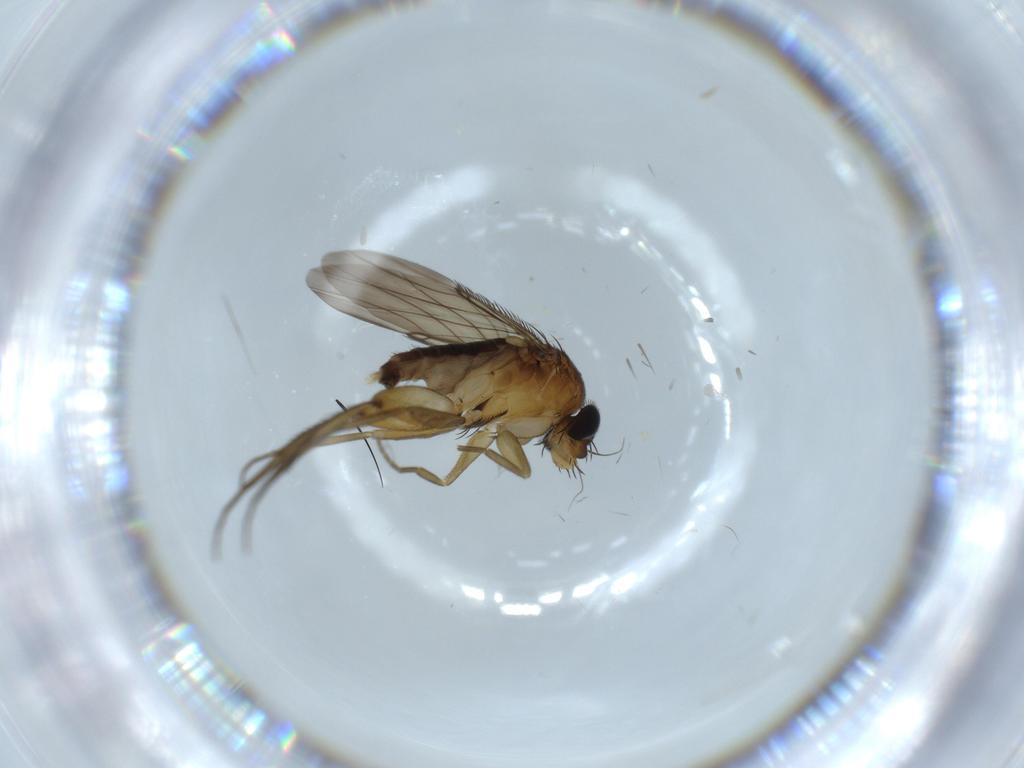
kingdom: Animalia
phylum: Arthropoda
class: Insecta
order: Diptera
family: Phoridae
